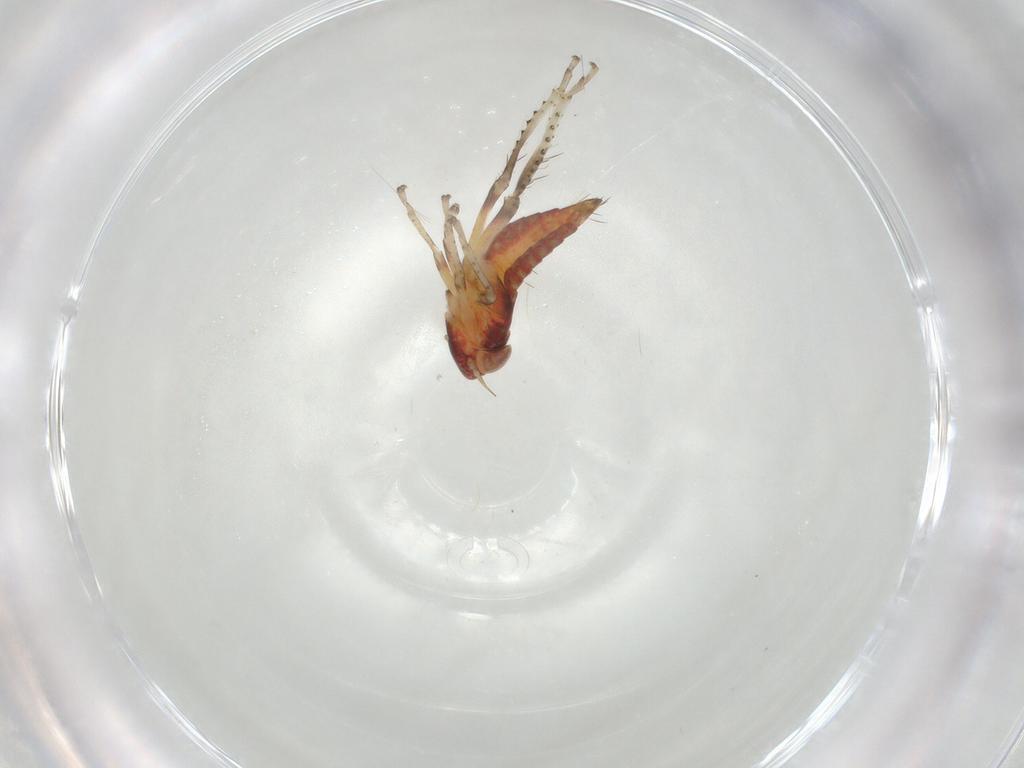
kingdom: Animalia
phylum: Arthropoda
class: Insecta
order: Hemiptera
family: Cicadellidae
